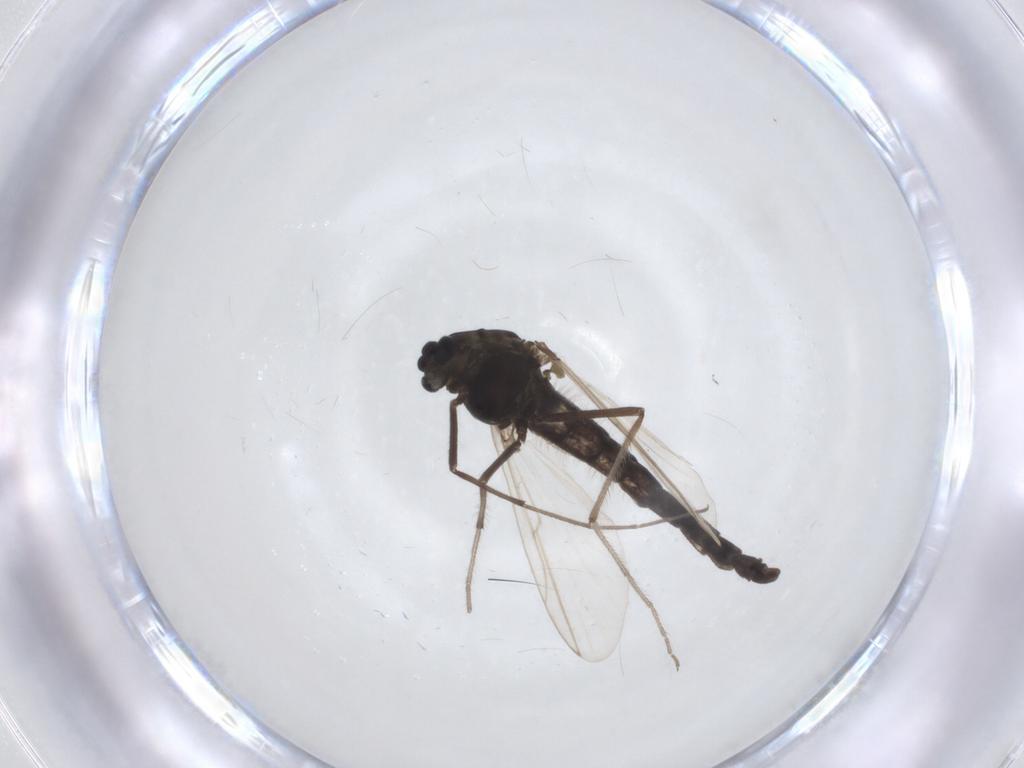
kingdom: Animalia
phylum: Arthropoda
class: Insecta
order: Diptera
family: Chironomidae
